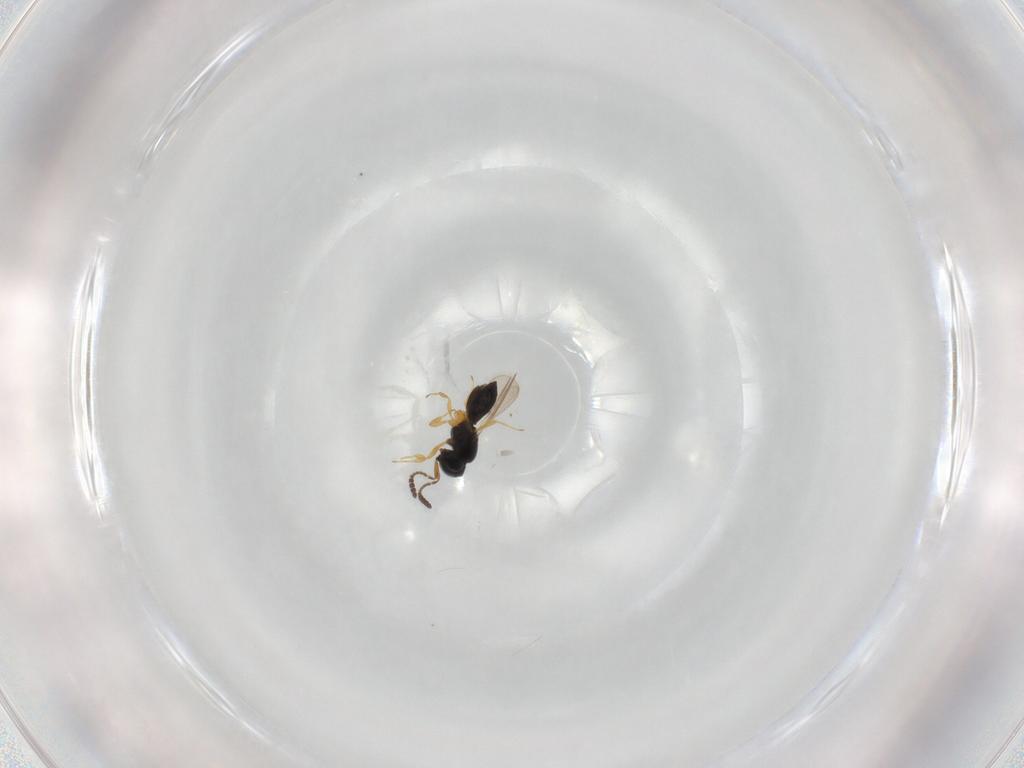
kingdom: Animalia
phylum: Arthropoda
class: Insecta
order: Hymenoptera
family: Scelionidae
